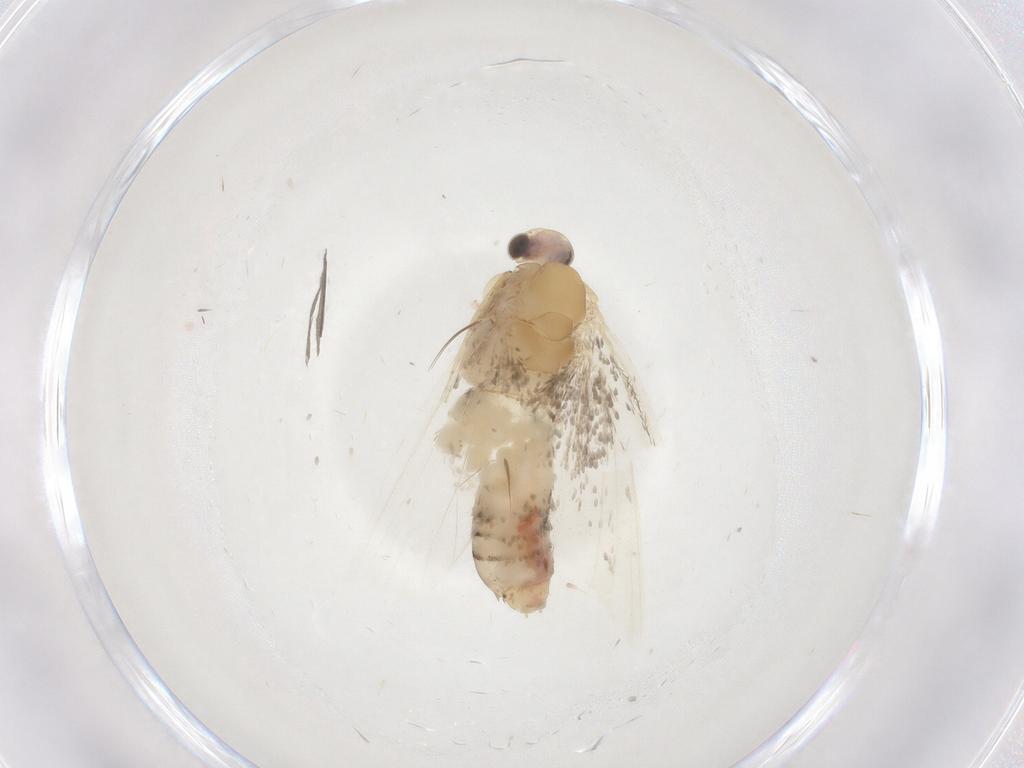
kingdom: Animalia
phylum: Arthropoda
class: Insecta
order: Lepidoptera
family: Tineidae
